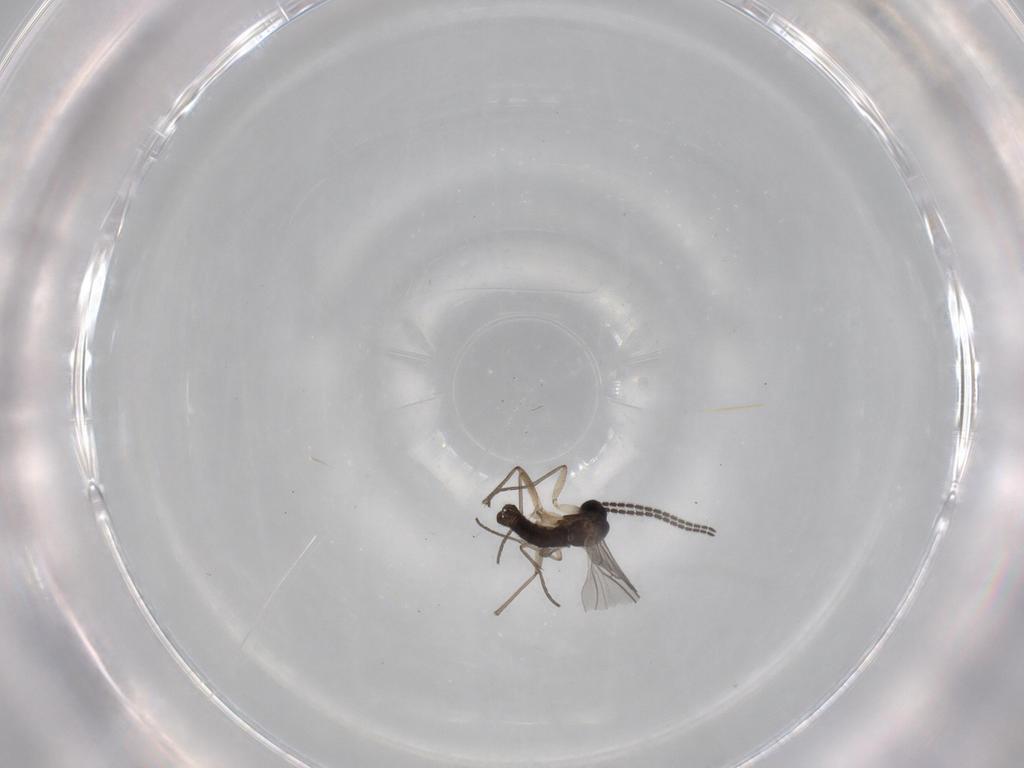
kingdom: Animalia
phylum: Arthropoda
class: Insecta
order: Diptera
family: Sciaridae
